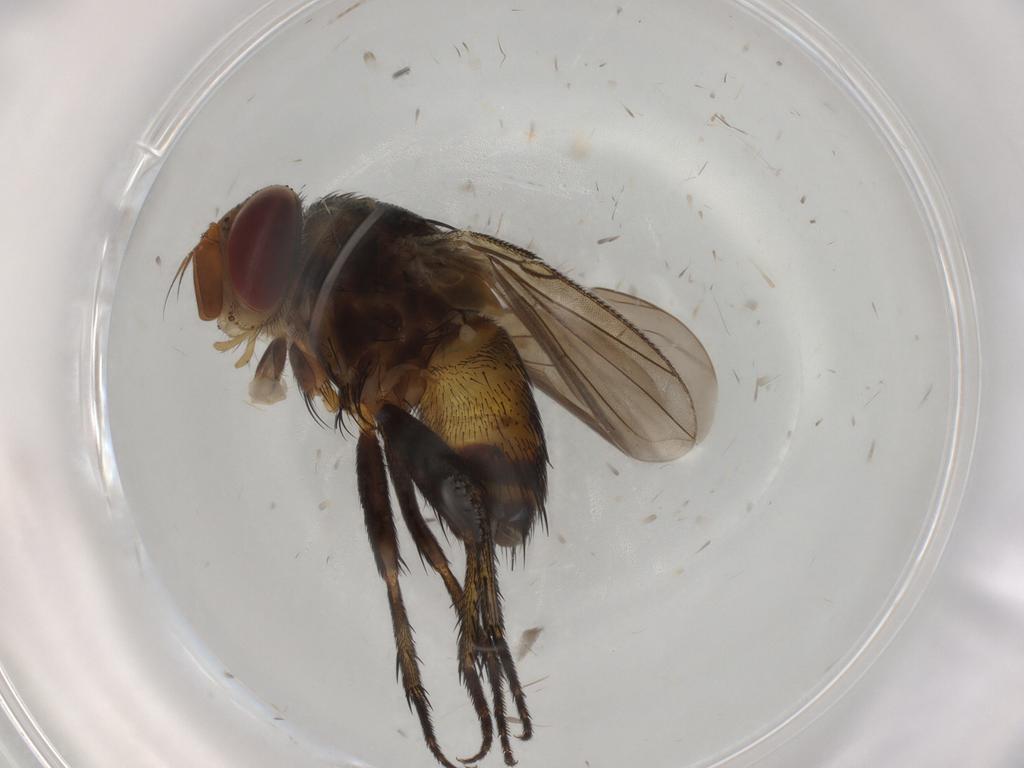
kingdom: Animalia
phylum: Arthropoda
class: Insecta
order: Diptera
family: Tachinidae
